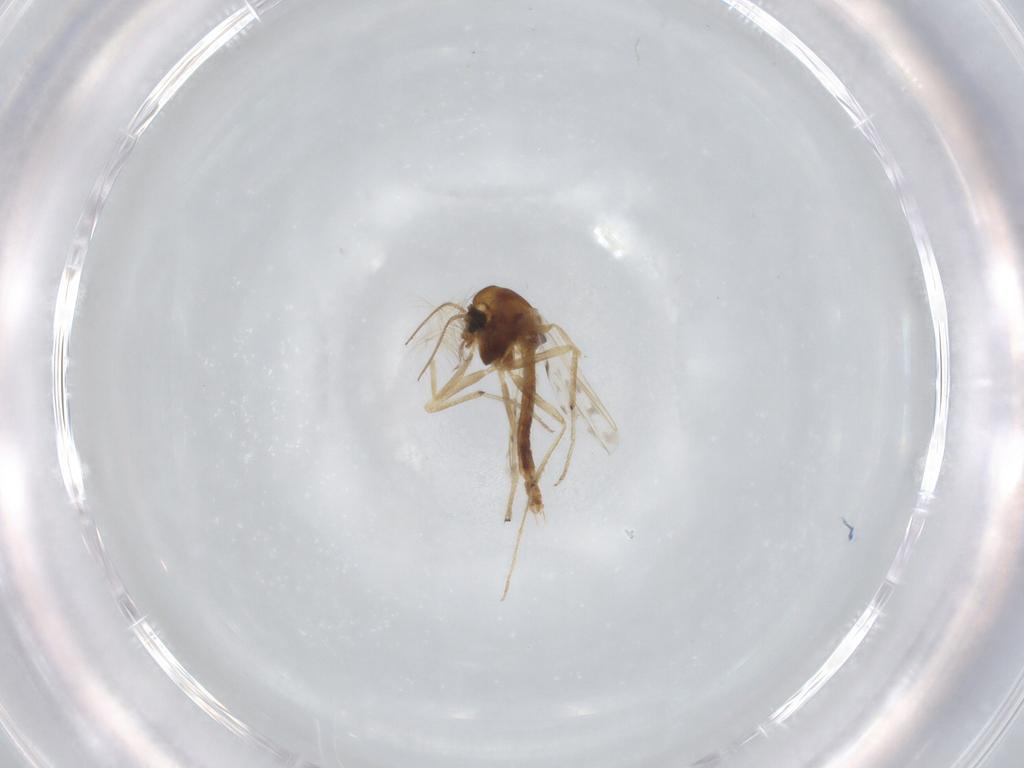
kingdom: Animalia
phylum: Arthropoda
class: Insecta
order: Diptera
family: Chironomidae
